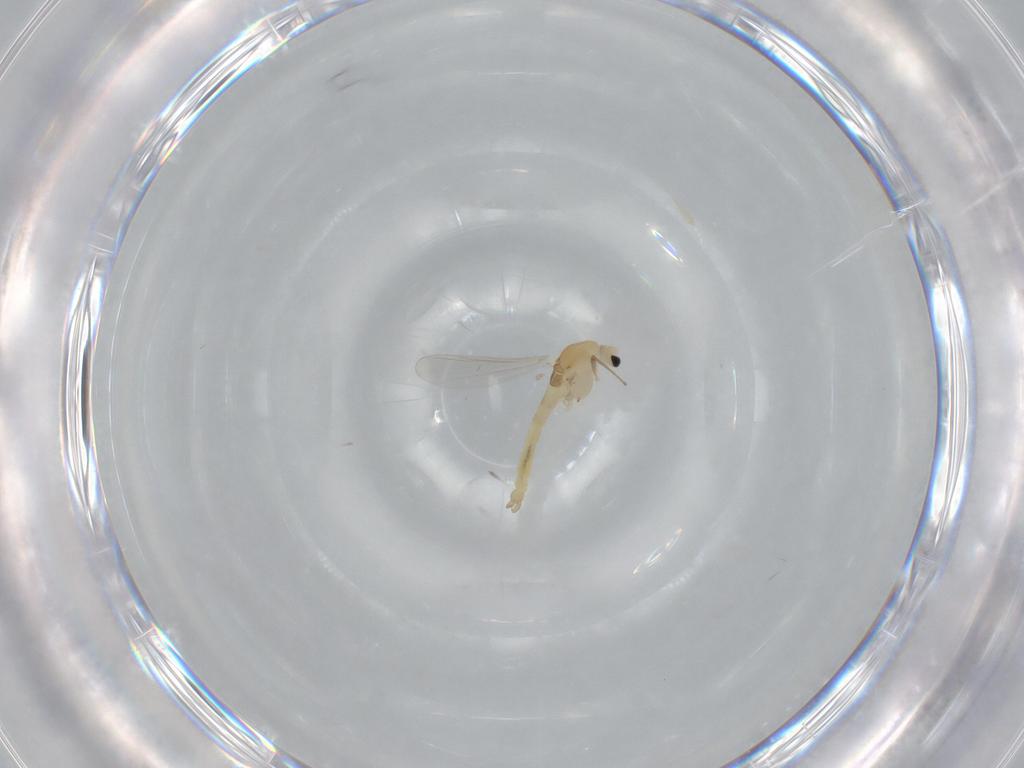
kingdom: Animalia
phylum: Arthropoda
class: Insecta
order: Diptera
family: Chironomidae
